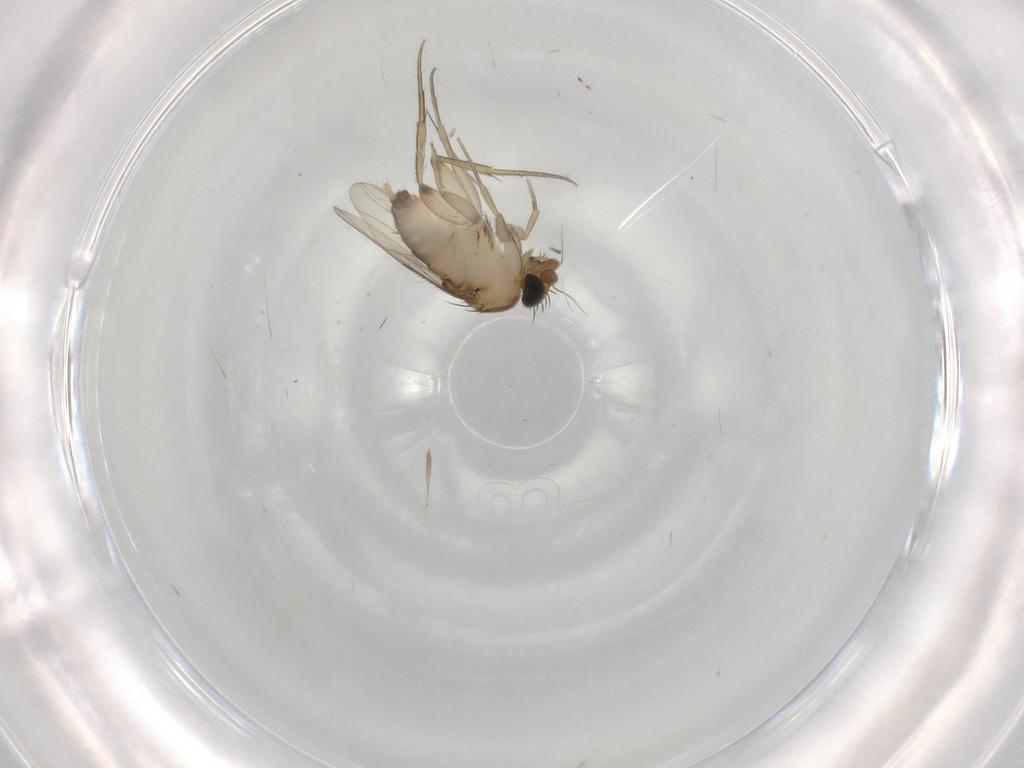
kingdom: Animalia
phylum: Arthropoda
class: Insecta
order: Diptera
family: Phoridae
